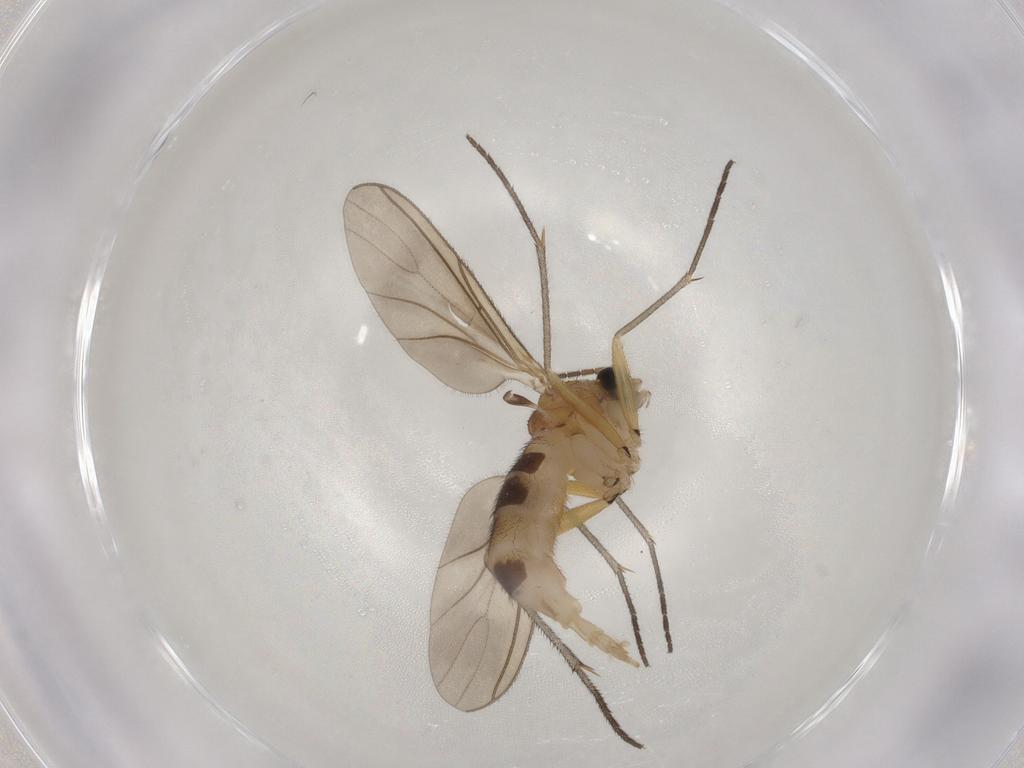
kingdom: Animalia
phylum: Arthropoda
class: Insecta
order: Diptera
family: Sciaridae
